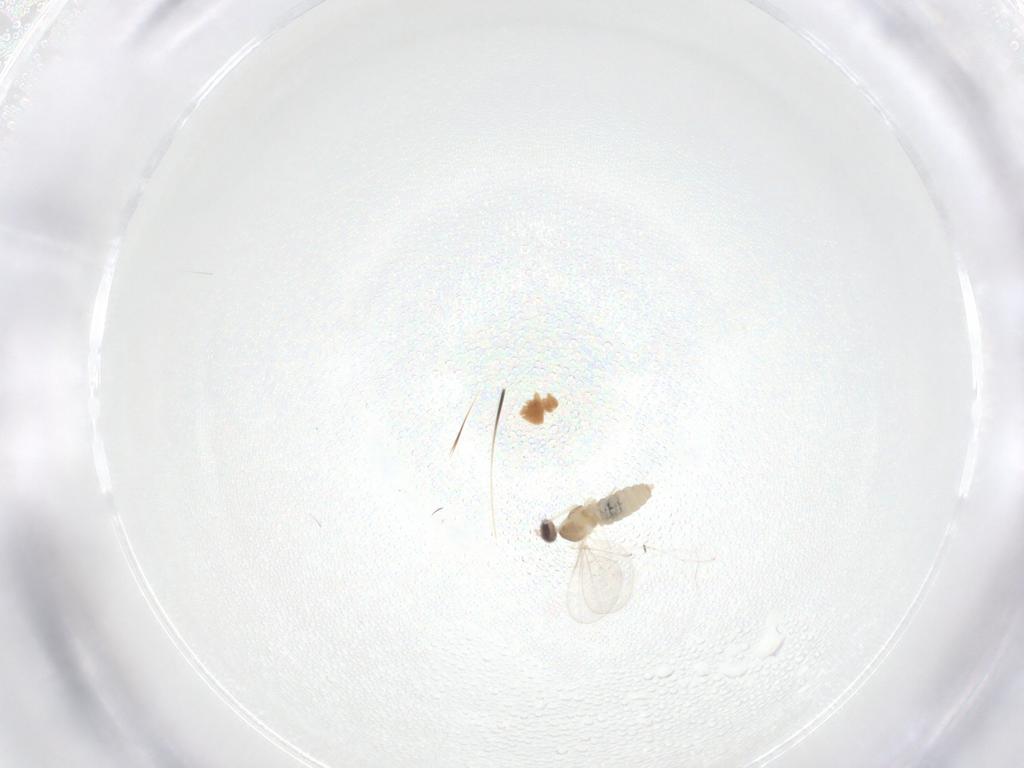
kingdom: Animalia
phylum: Arthropoda
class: Insecta
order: Diptera
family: Cecidomyiidae
